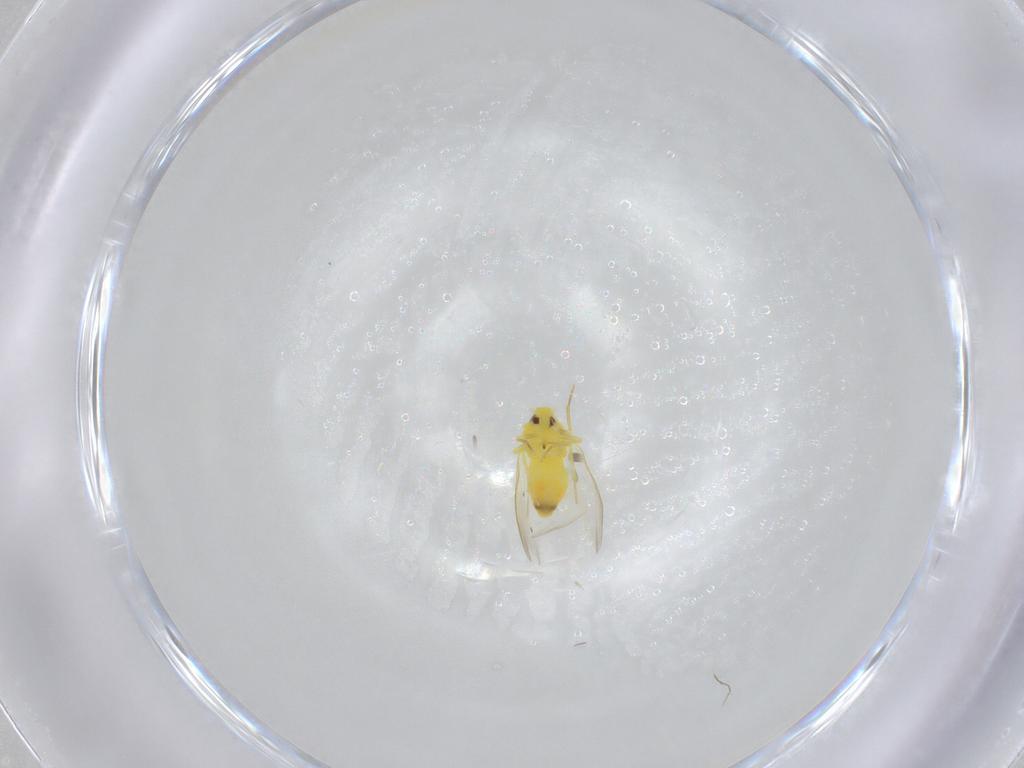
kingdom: Animalia
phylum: Arthropoda
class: Insecta
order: Hemiptera
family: Aleyrodidae
